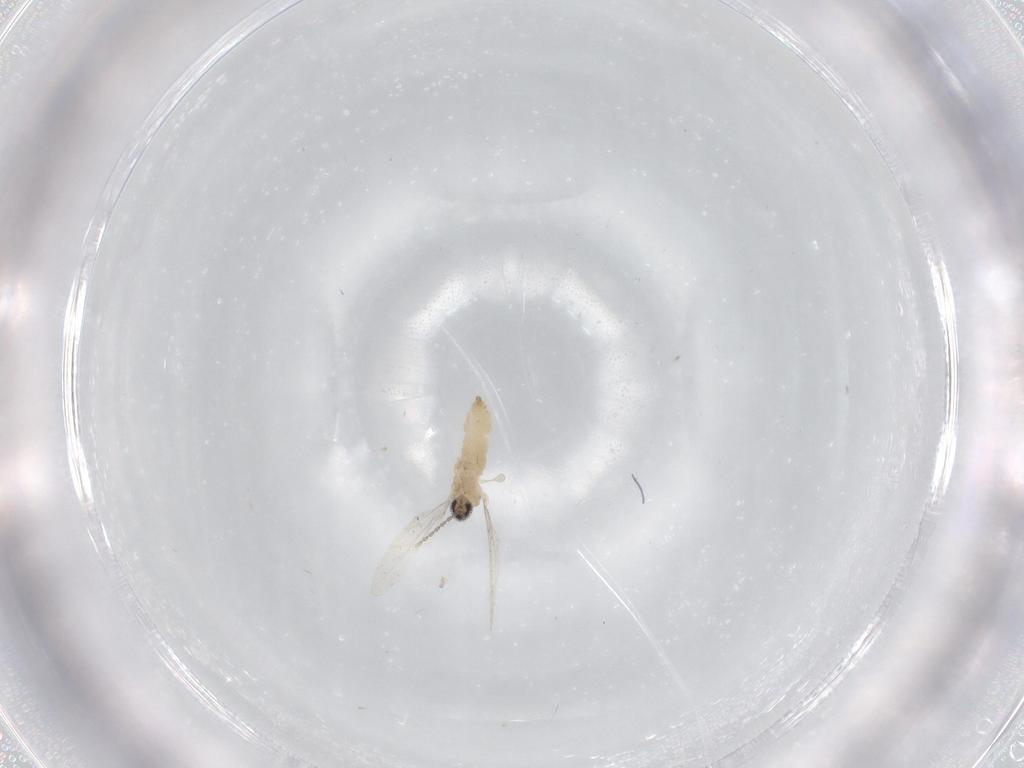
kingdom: Animalia
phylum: Arthropoda
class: Insecta
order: Diptera
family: Cecidomyiidae
